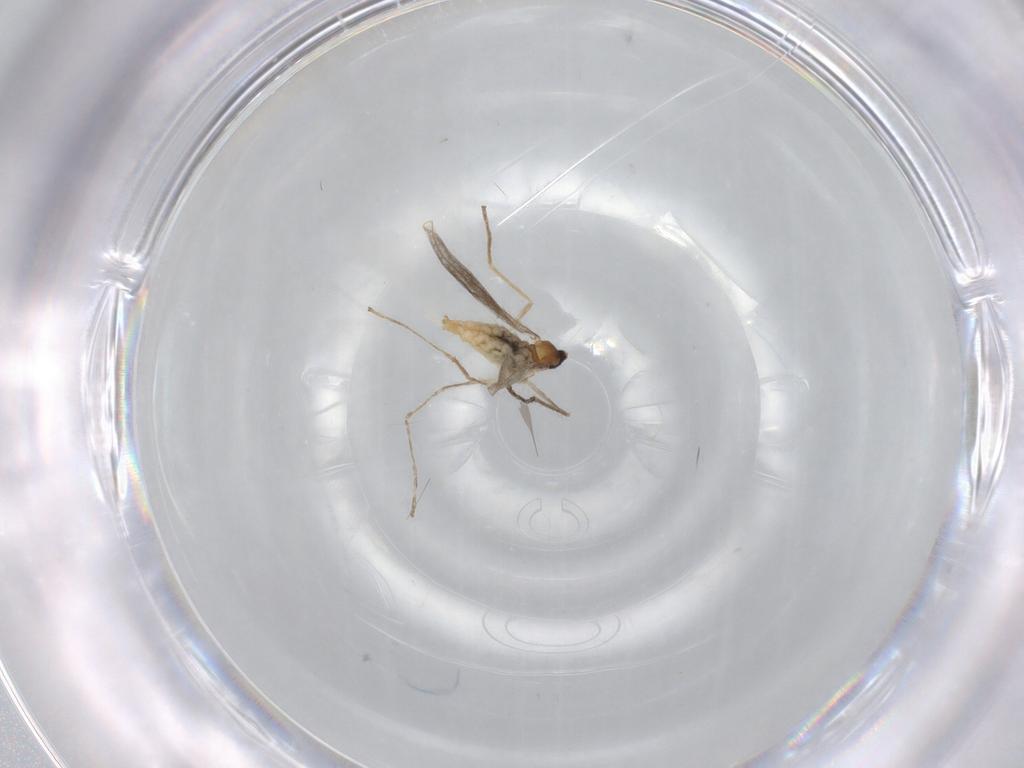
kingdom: Animalia
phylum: Arthropoda
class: Insecta
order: Diptera
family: Cecidomyiidae
